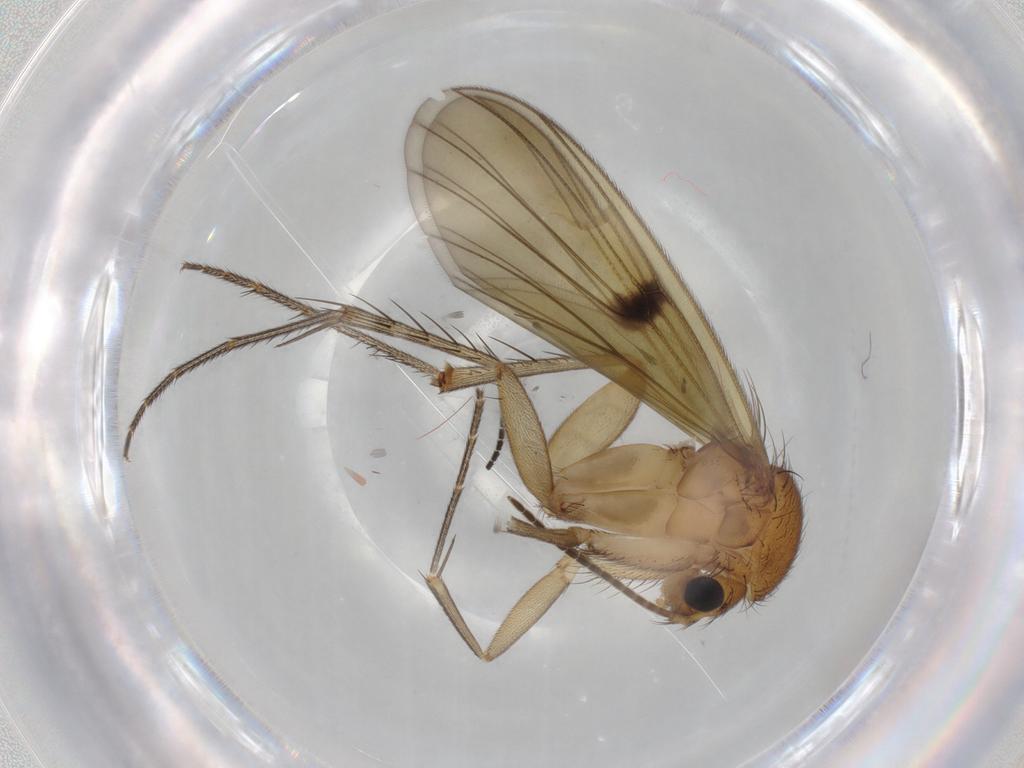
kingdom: Animalia
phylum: Arthropoda
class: Insecta
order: Diptera
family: Mycetophilidae
